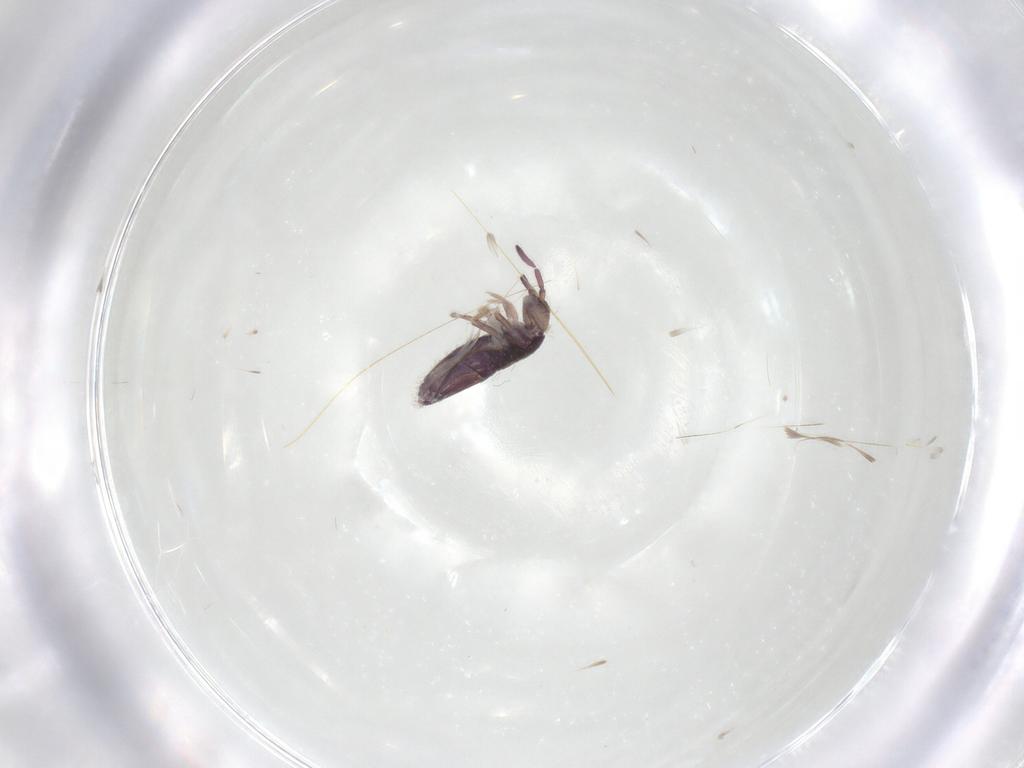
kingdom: Animalia
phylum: Arthropoda
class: Collembola
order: Entomobryomorpha
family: Entomobryidae
